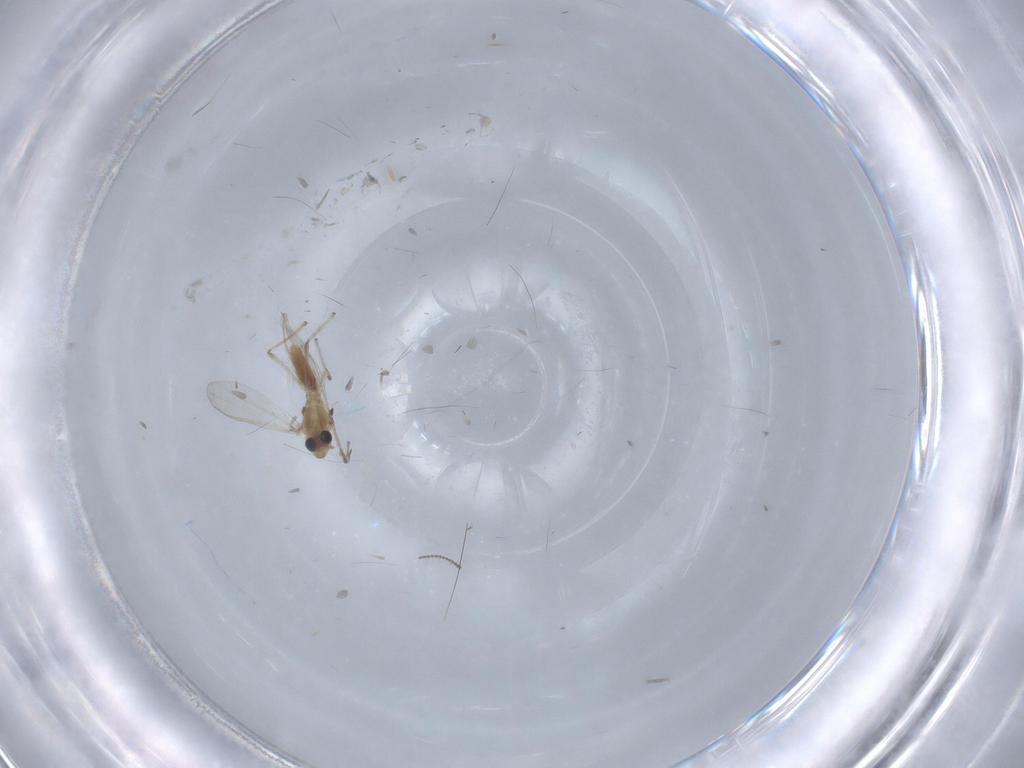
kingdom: Animalia
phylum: Arthropoda
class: Insecta
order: Diptera
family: Chironomidae
